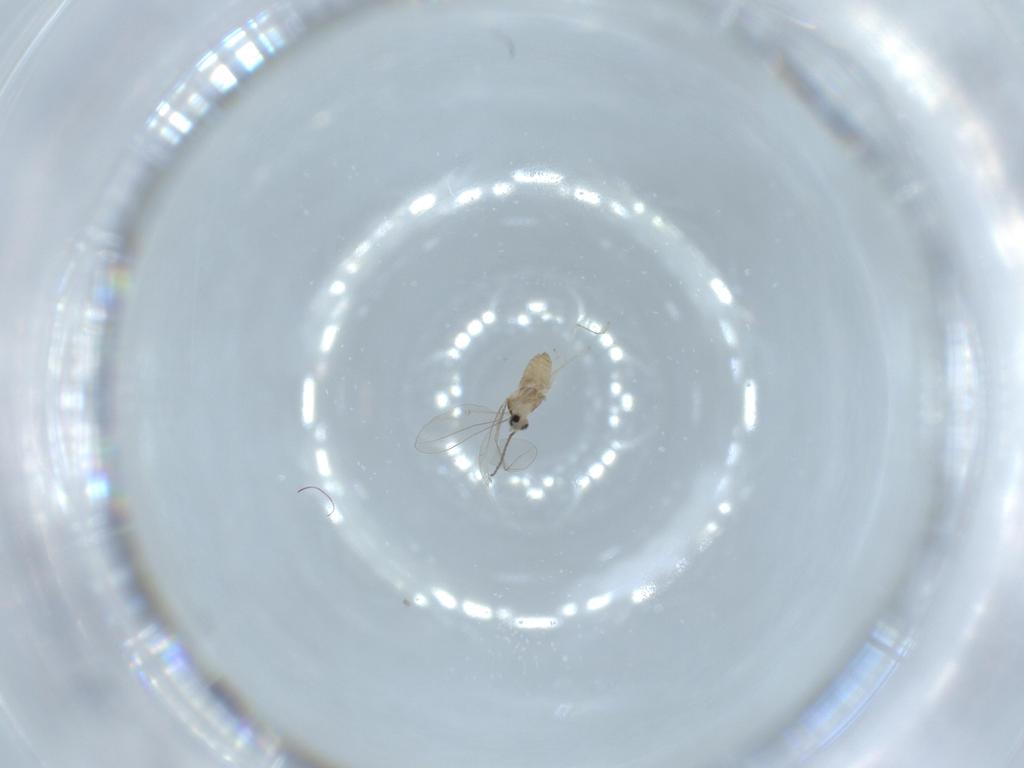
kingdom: Animalia
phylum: Arthropoda
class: Insecta
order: Diptera
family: Cecidomyiidae
